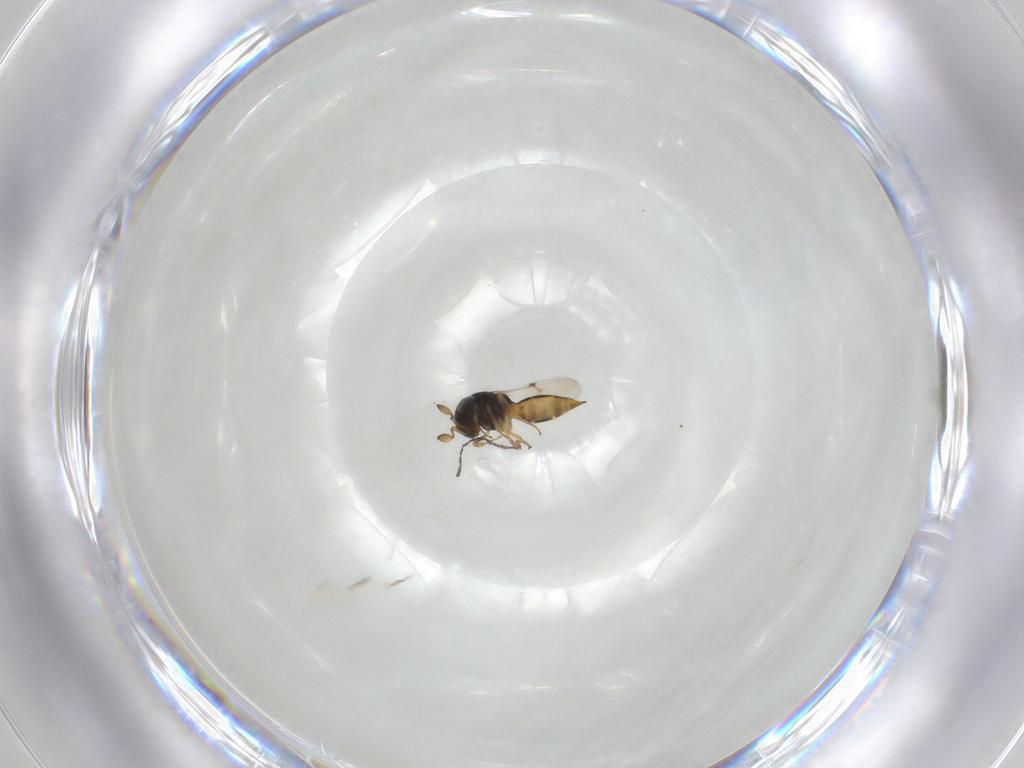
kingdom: Animalia
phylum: Arthropoda
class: Insecta
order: Hymenoptera
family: Scelionidae
